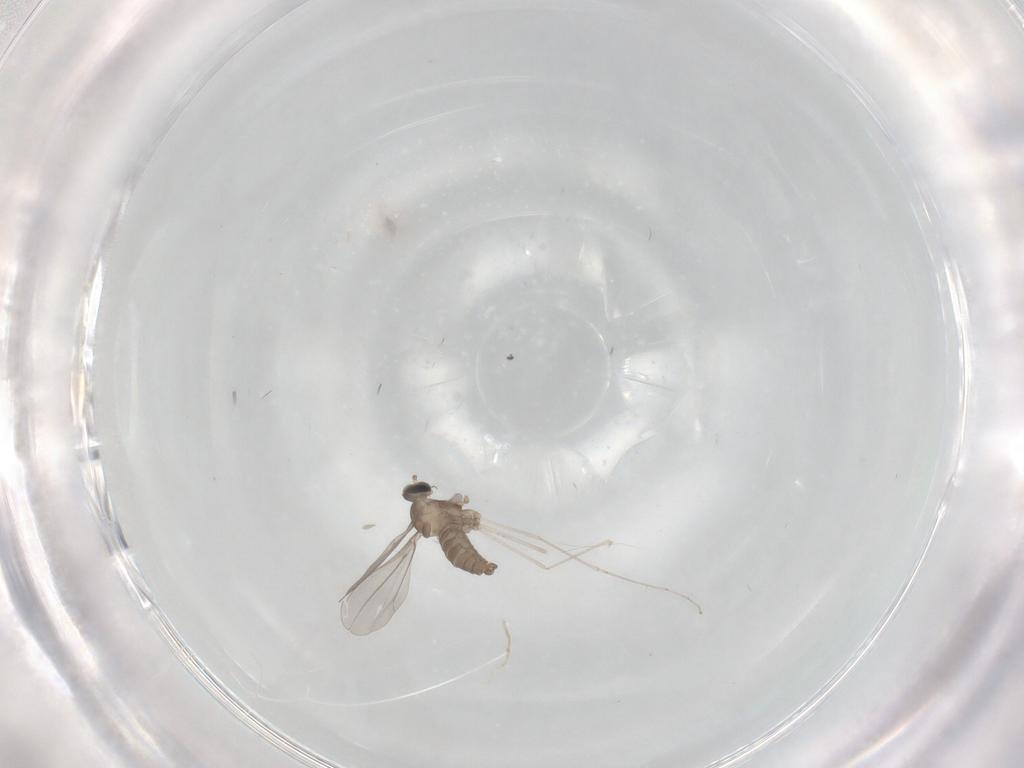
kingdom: Animalia
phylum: Arthropoda
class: Insecta
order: Diptera
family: Cecidomyiidae
